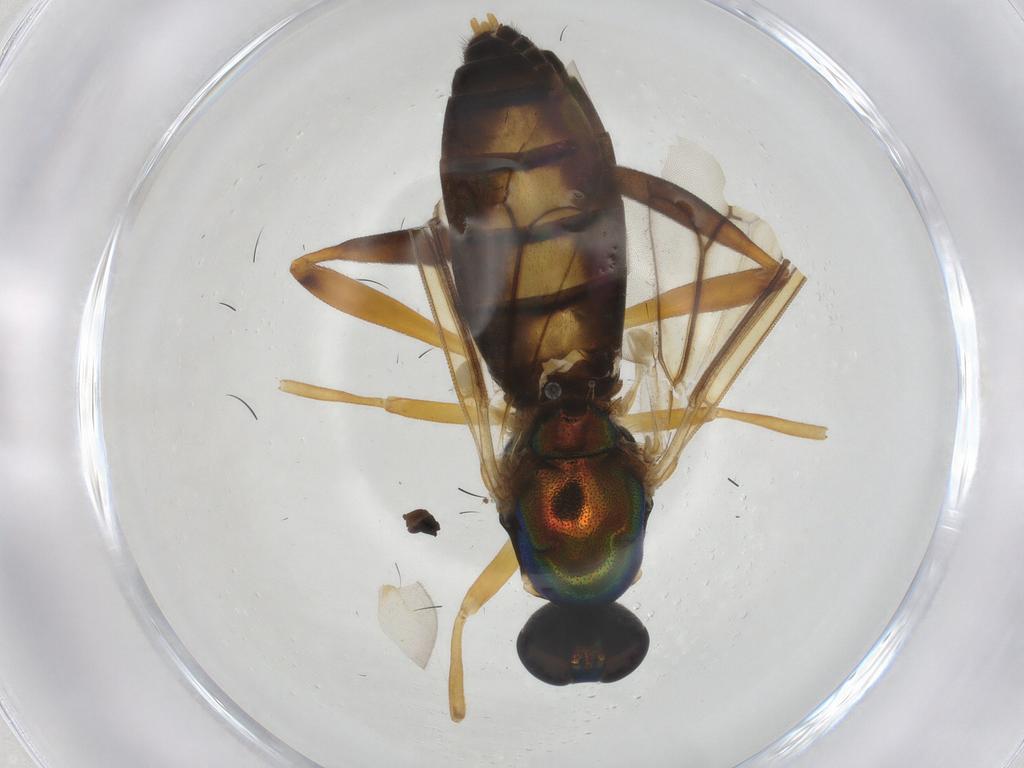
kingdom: Animalia
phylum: Arthropoda
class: Insecta
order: Diptera
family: Stratiomyidae
